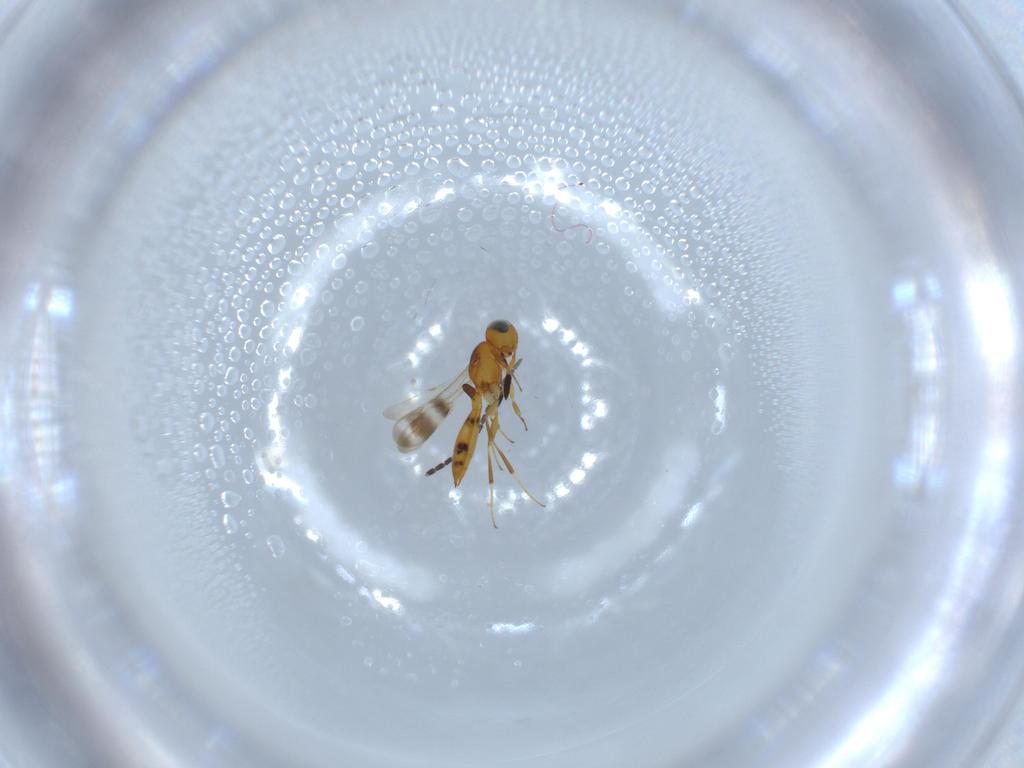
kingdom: Animalia
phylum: Arthropoda
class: Insecta
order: Hymenoptera
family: Scelionidae
